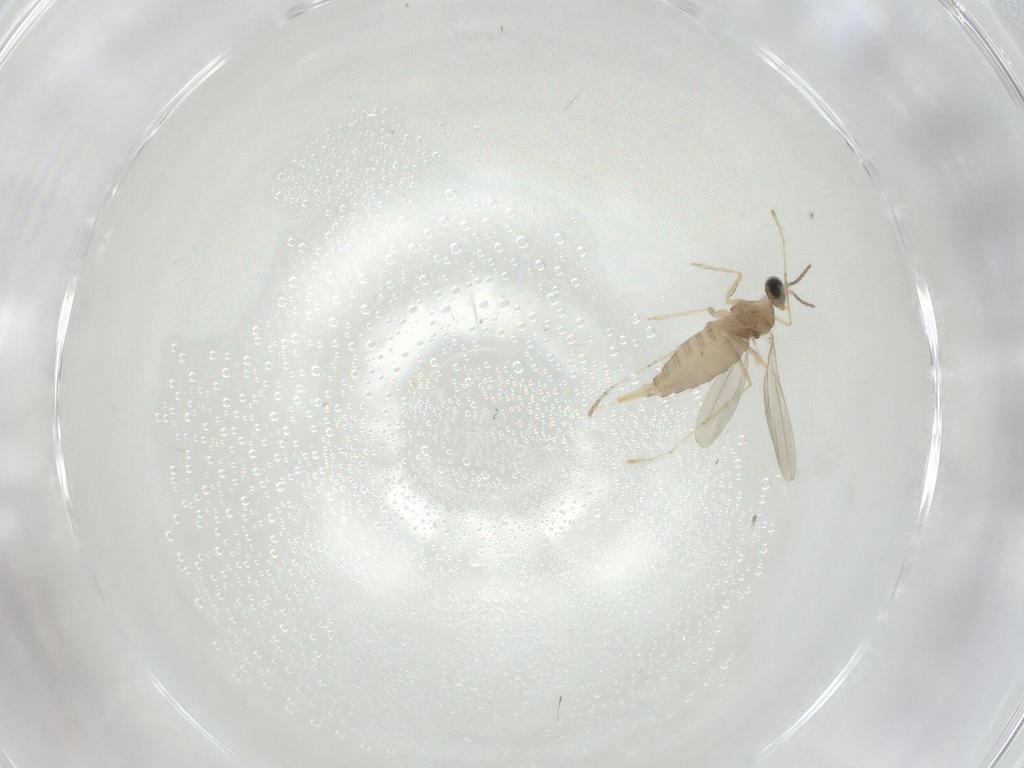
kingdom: Animalia
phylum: Arthropoda
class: Insecta
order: Diptera
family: Cecidomyiidae
